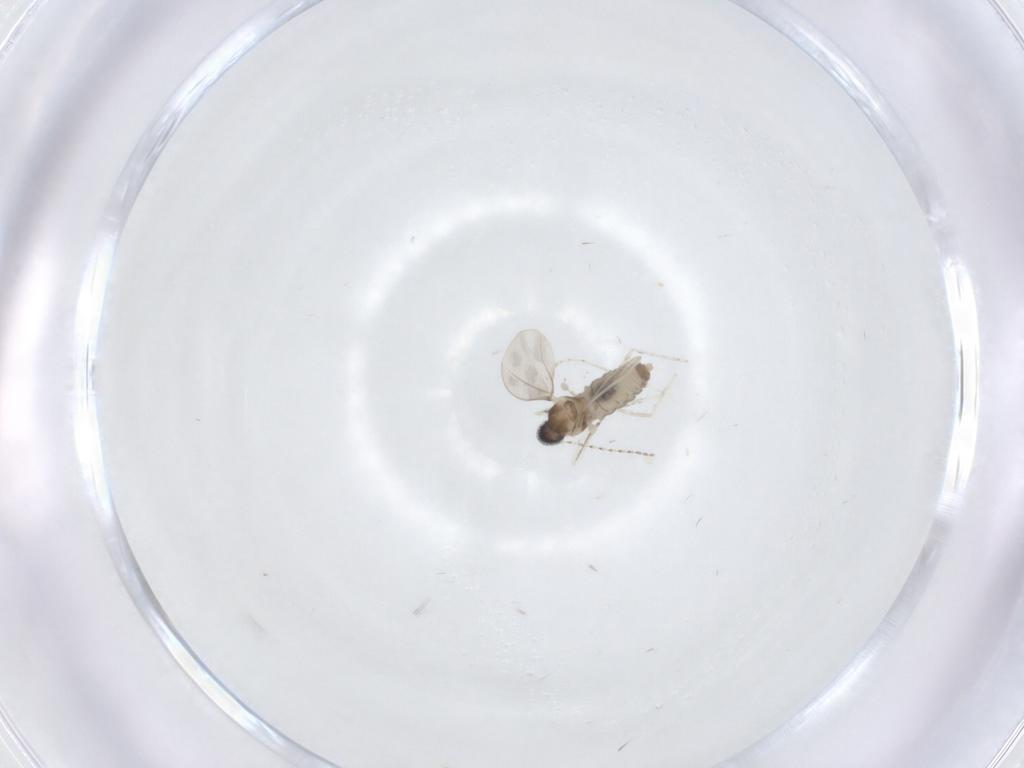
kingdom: Animalia
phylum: Arthropoda
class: Insecta
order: Diptera
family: Cecidomyiidae
